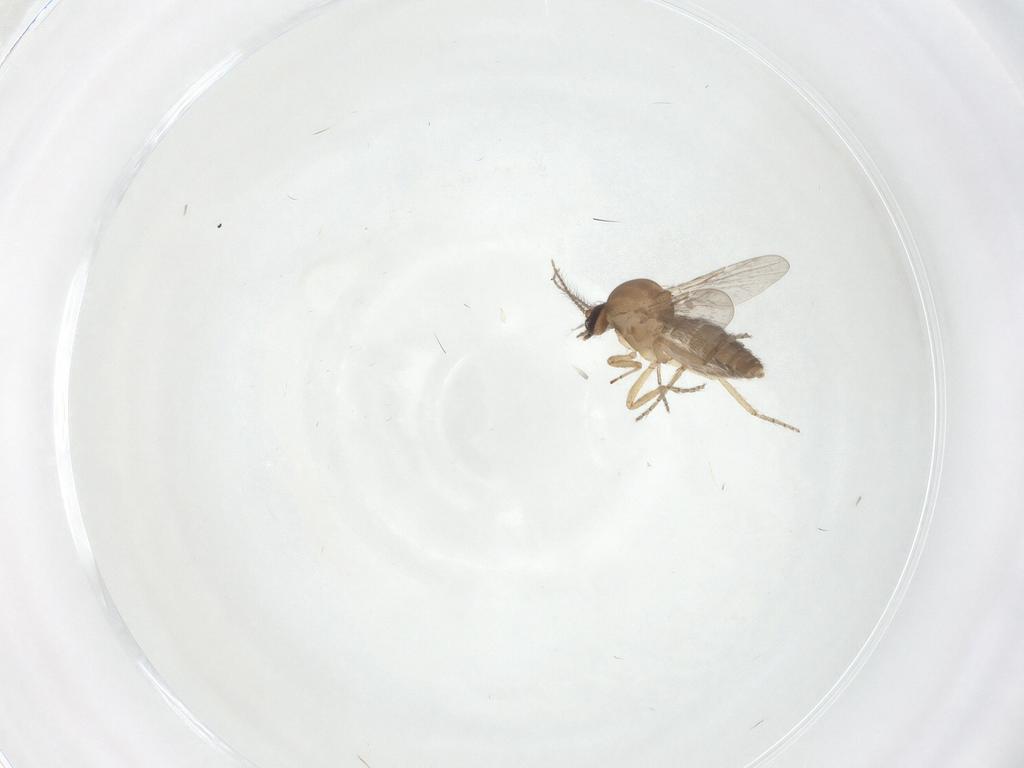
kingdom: Animalia
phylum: Arthropoda
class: Insecta
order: Diptera
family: Ceratopogonidae
